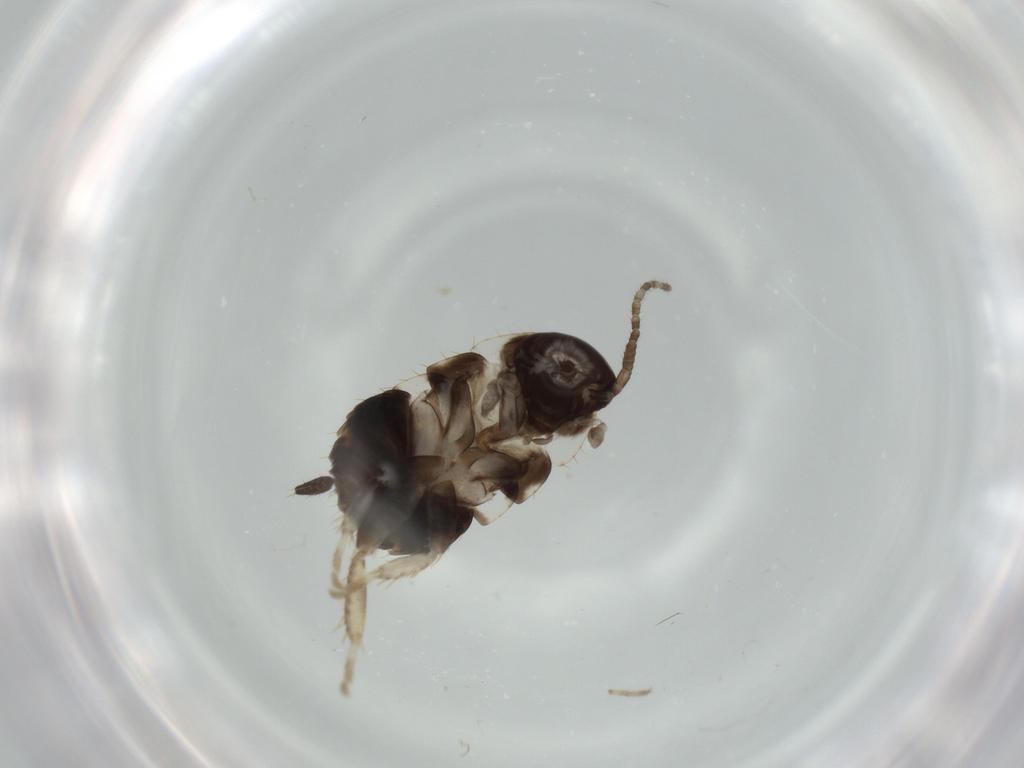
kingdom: Animalia
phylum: Arthropoda
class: Insecta
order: Blattodea
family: Ectobiidae
